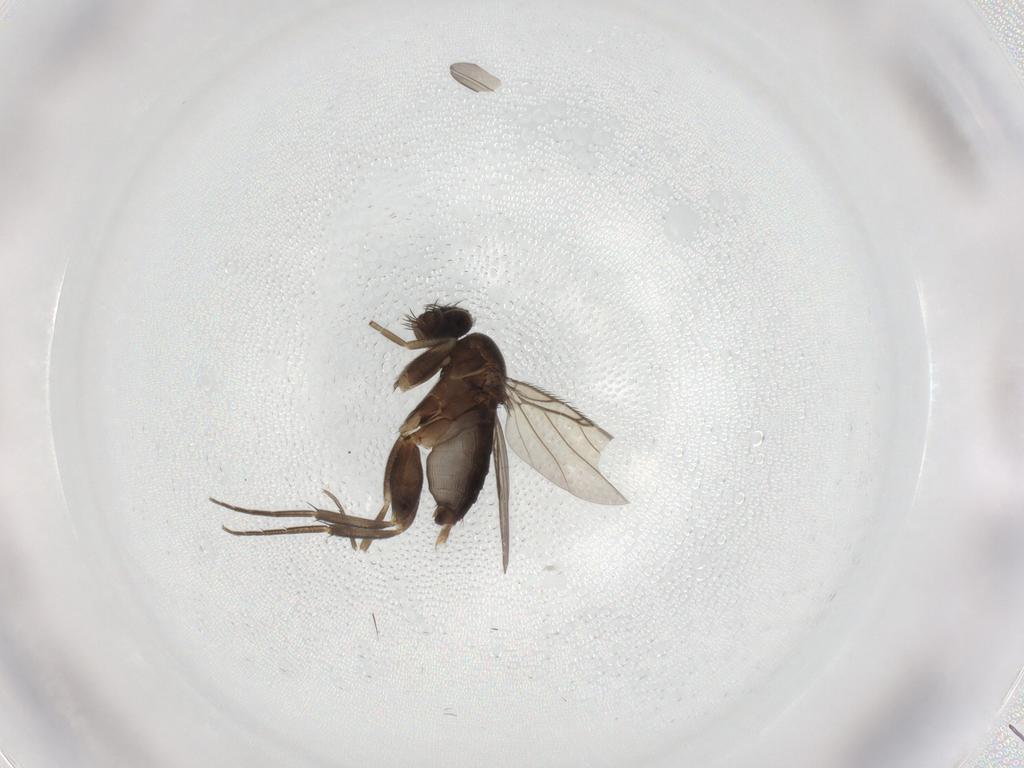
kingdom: Animalia
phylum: Arthropoda
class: Insecta
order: Diptera
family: Phoridae
